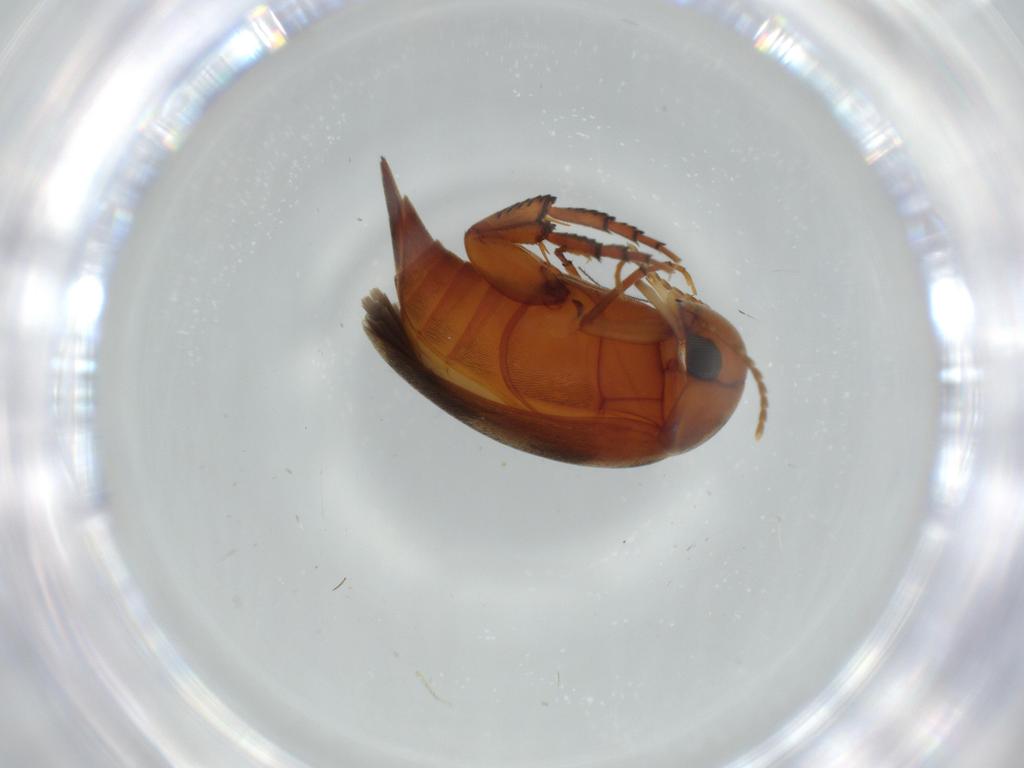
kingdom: Animalia
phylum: Arthropoda
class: Insecta
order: Coleoptera
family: Mordellidae
